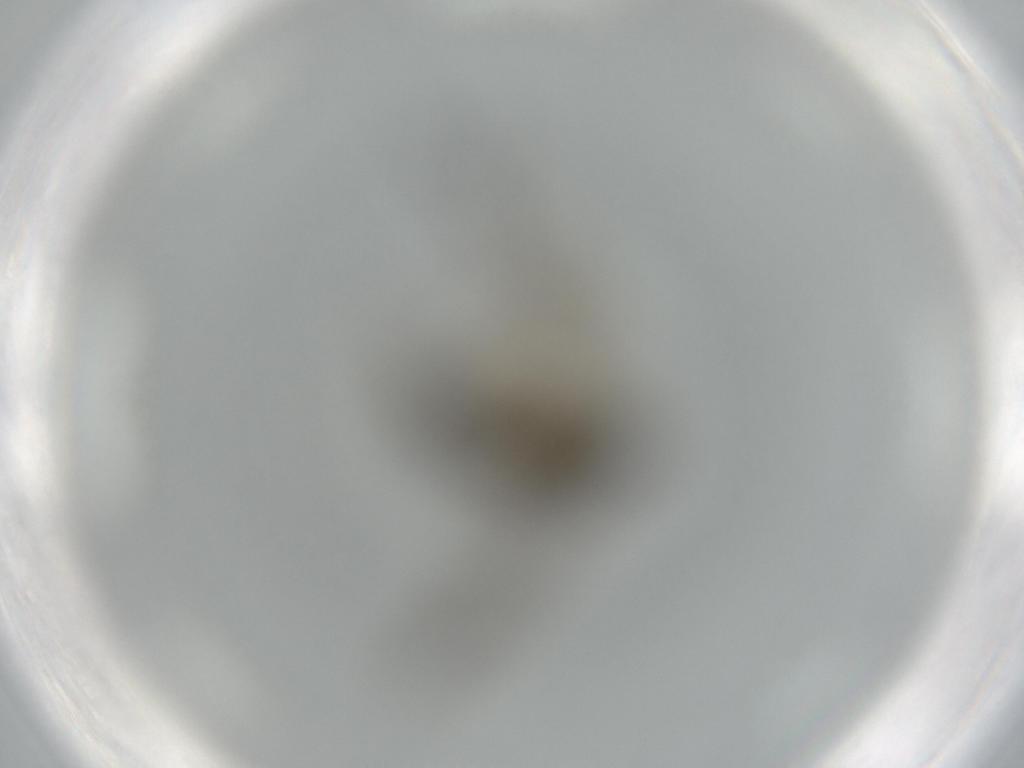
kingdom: Animalia
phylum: Arthropoda
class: Insecta
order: Diptera
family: Sciaridae
